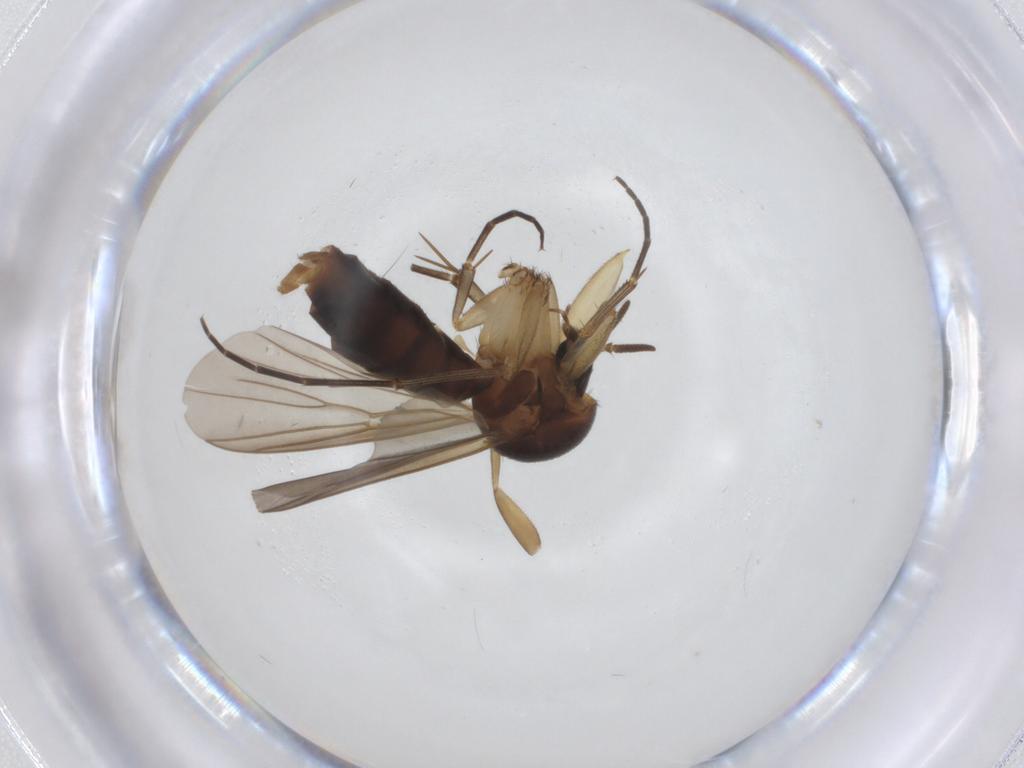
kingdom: Animalia
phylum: Arthropoda
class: Insecta
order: Diptera
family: Mycetophilidae
